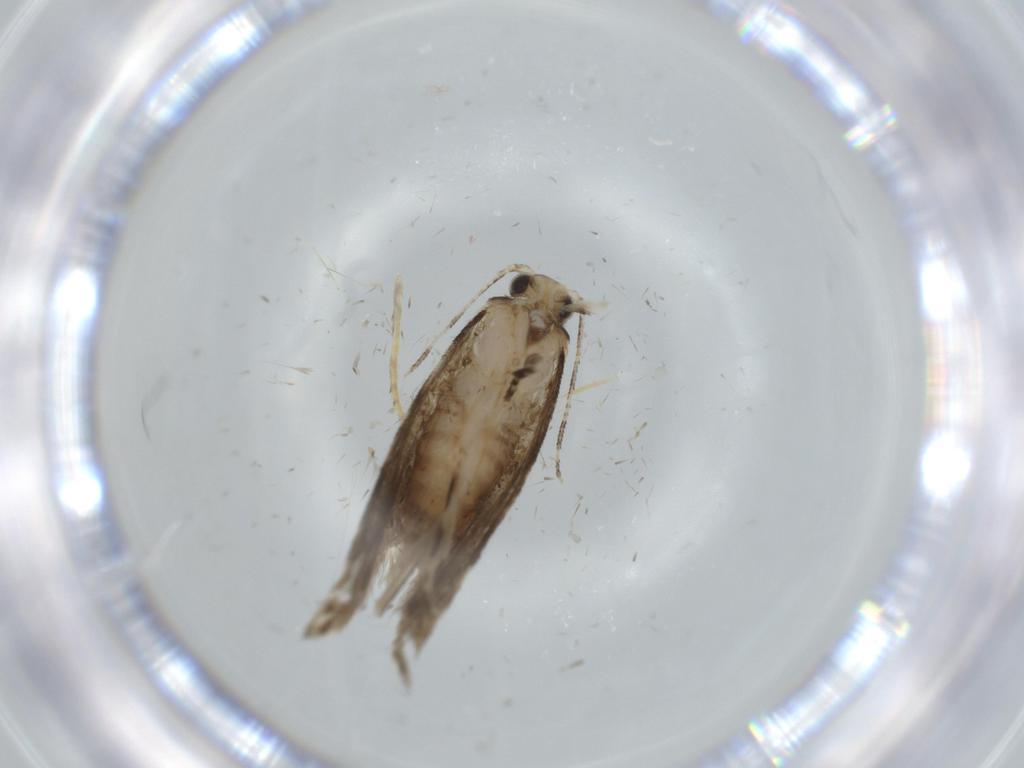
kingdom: Animalia
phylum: Arthropoda
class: Insecta
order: Lepidoptera
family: Tineidae
